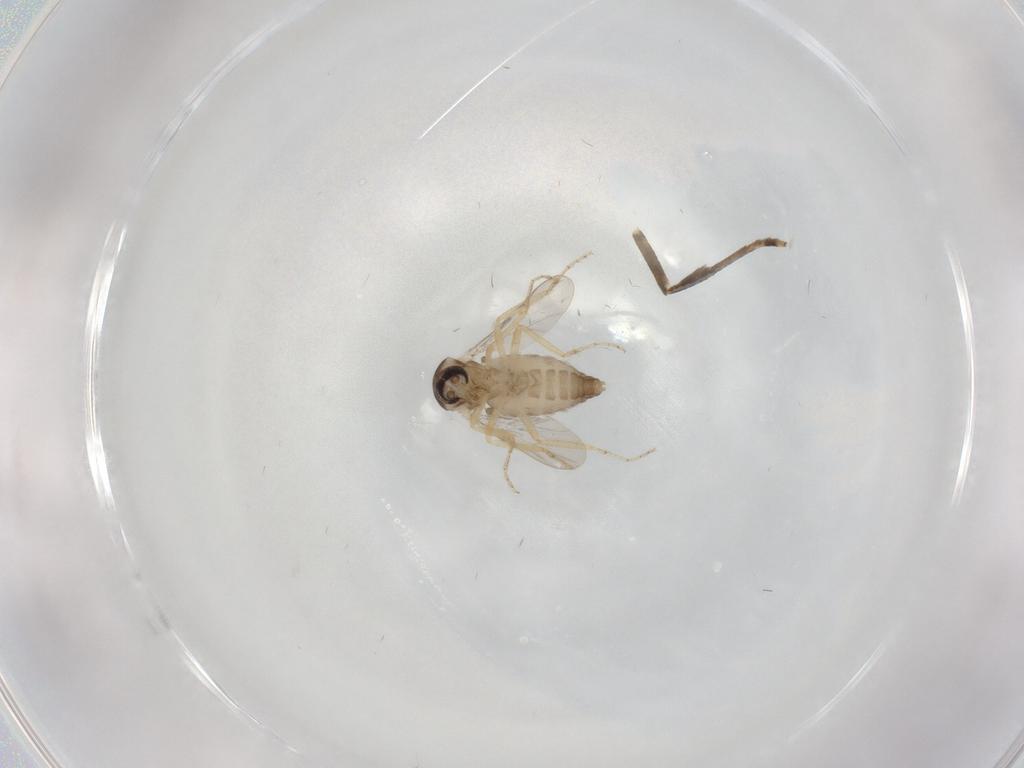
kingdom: Animalia
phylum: Arthropoda
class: Insecta
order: Diptera
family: Ceratopogonidae
